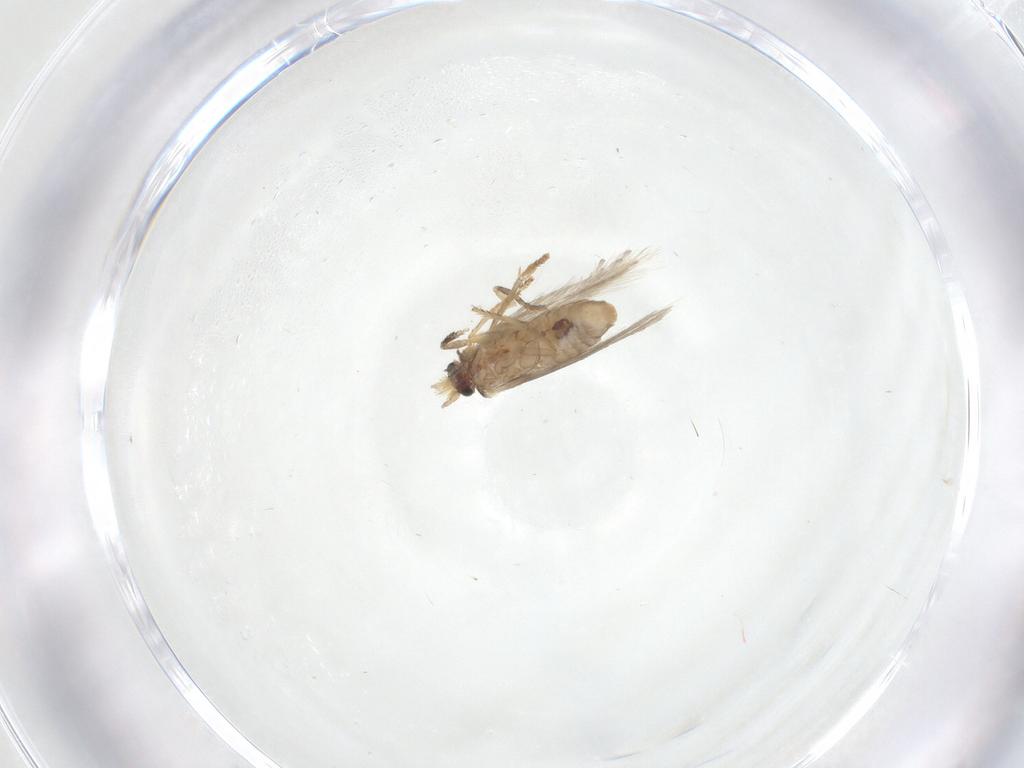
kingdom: Animalia
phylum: Arthropoda
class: Insecta
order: Lepidoptera
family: Nepticulidae
